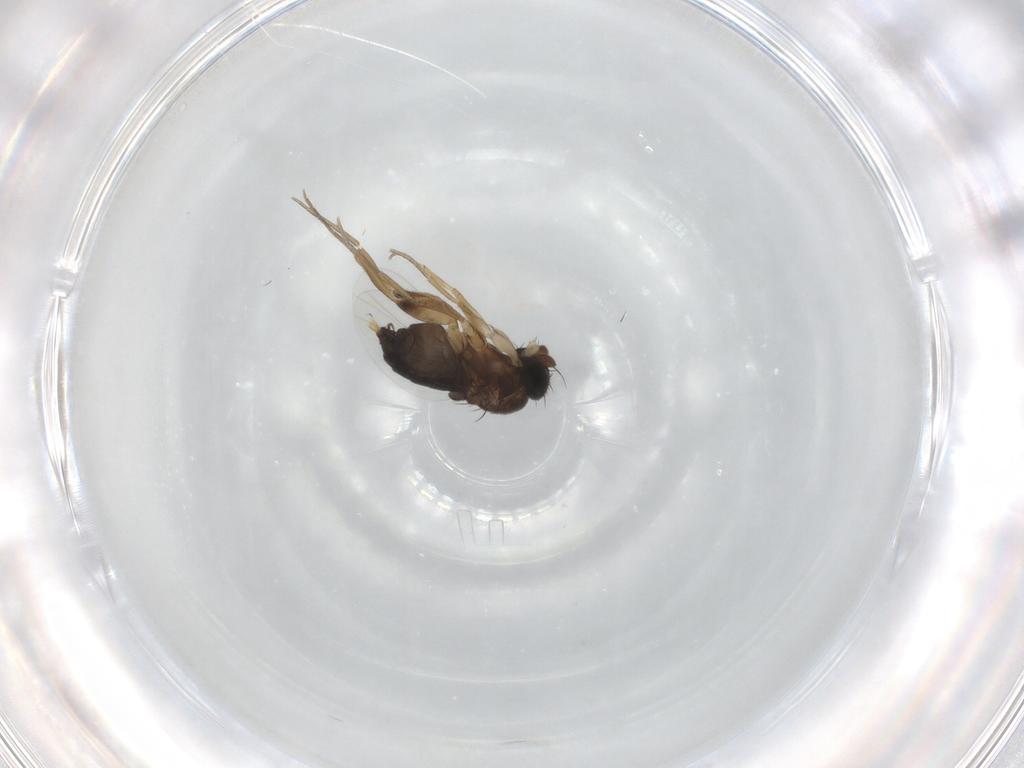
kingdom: Animalia
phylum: Arthropoda
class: Insecta
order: Diptera
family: Phoridae
